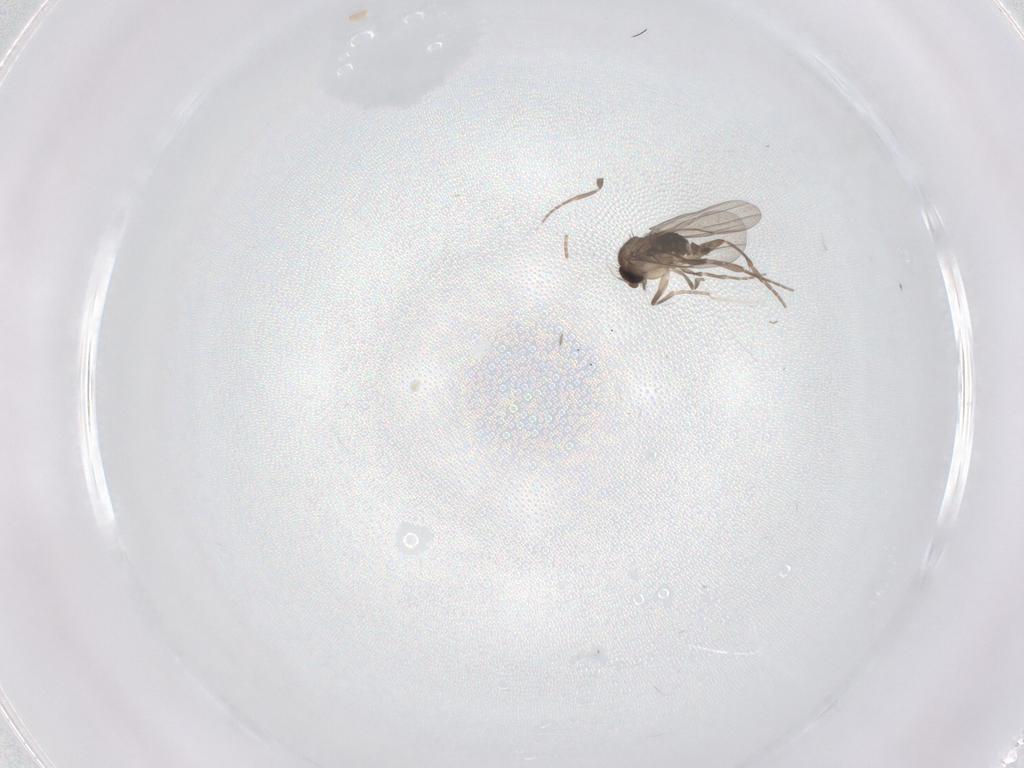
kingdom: Animalia
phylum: Arthropoda
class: Insecta
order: Diptera
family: Cecidomyiidae
